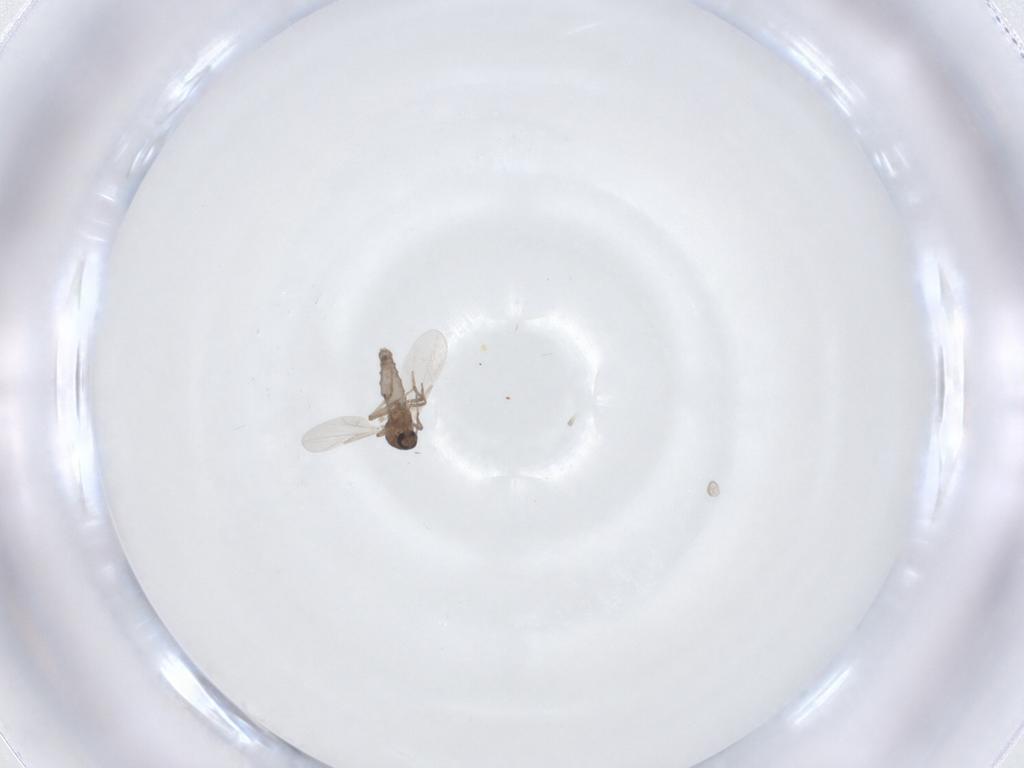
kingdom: Animalia
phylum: Arthropoda
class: Insecta
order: Diptera
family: Ceratopogonidae
